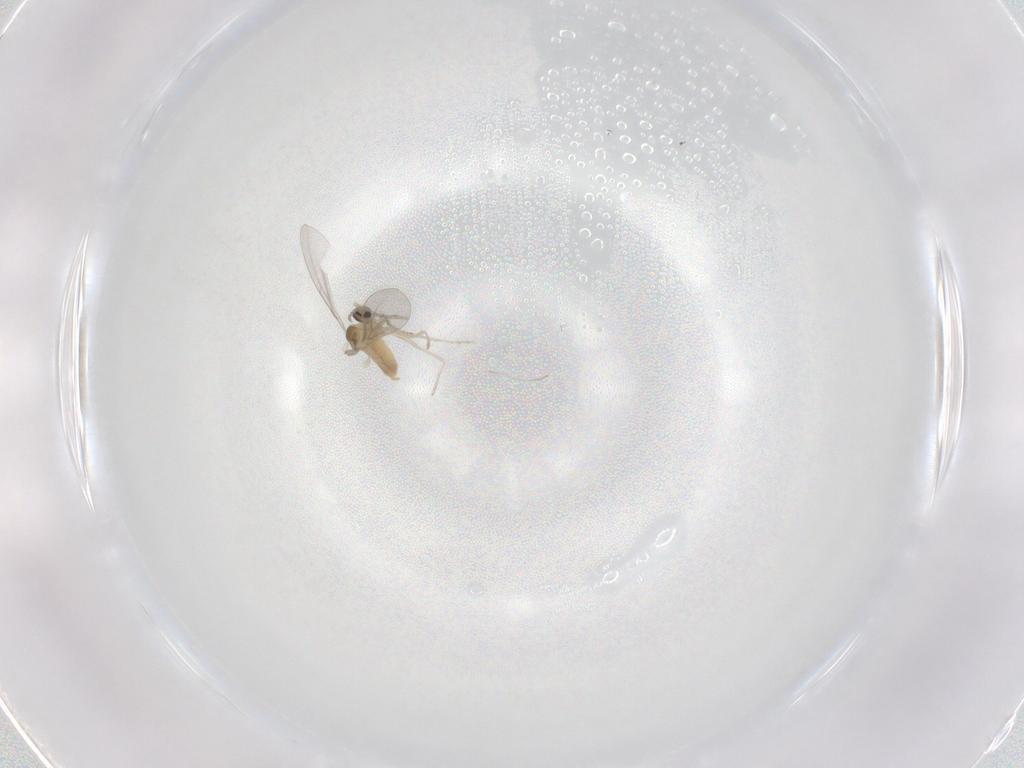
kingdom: Animalia
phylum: Arthropoda
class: Insecta
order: Diptera
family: Cecidomyiidae
